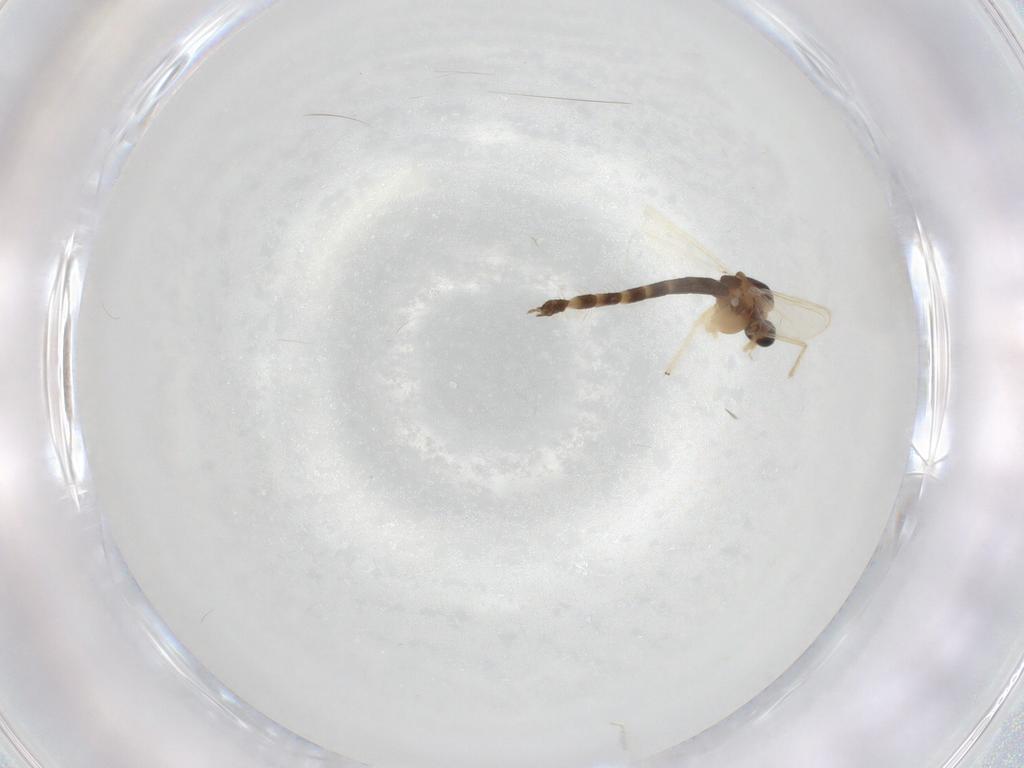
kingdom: Animalia
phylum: Arthropoda
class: Insecta
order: Diptera
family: Chironomidae
